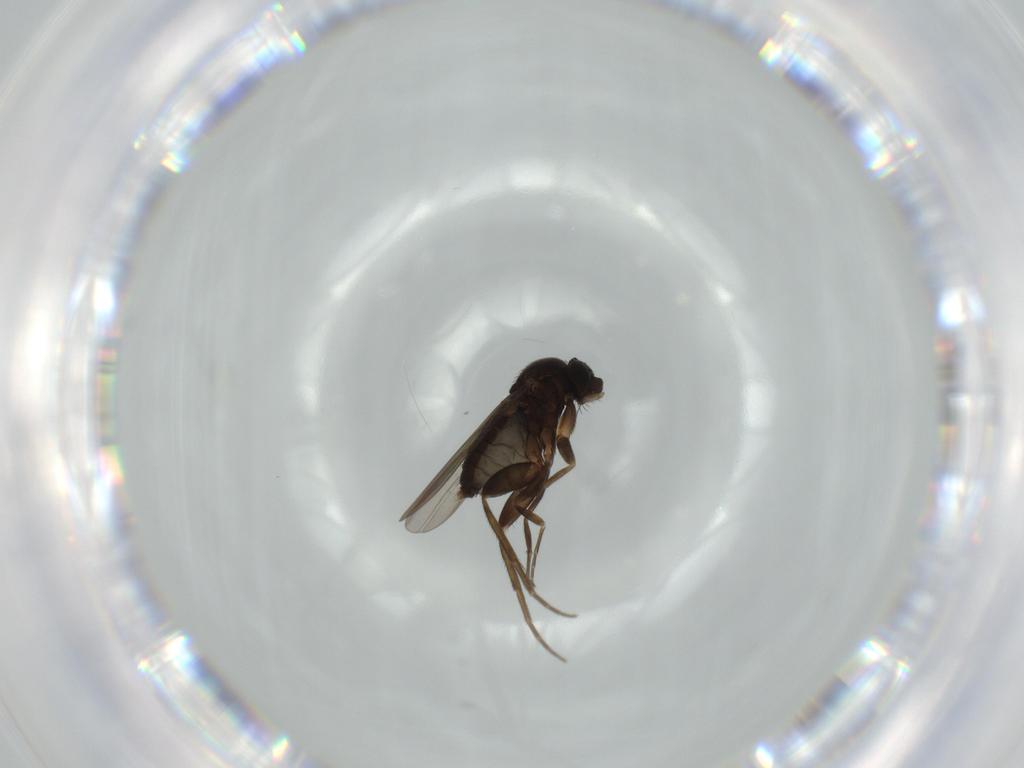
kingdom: Animalia
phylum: Arthropoda
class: Insecta
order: Diptera
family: Phoridae
